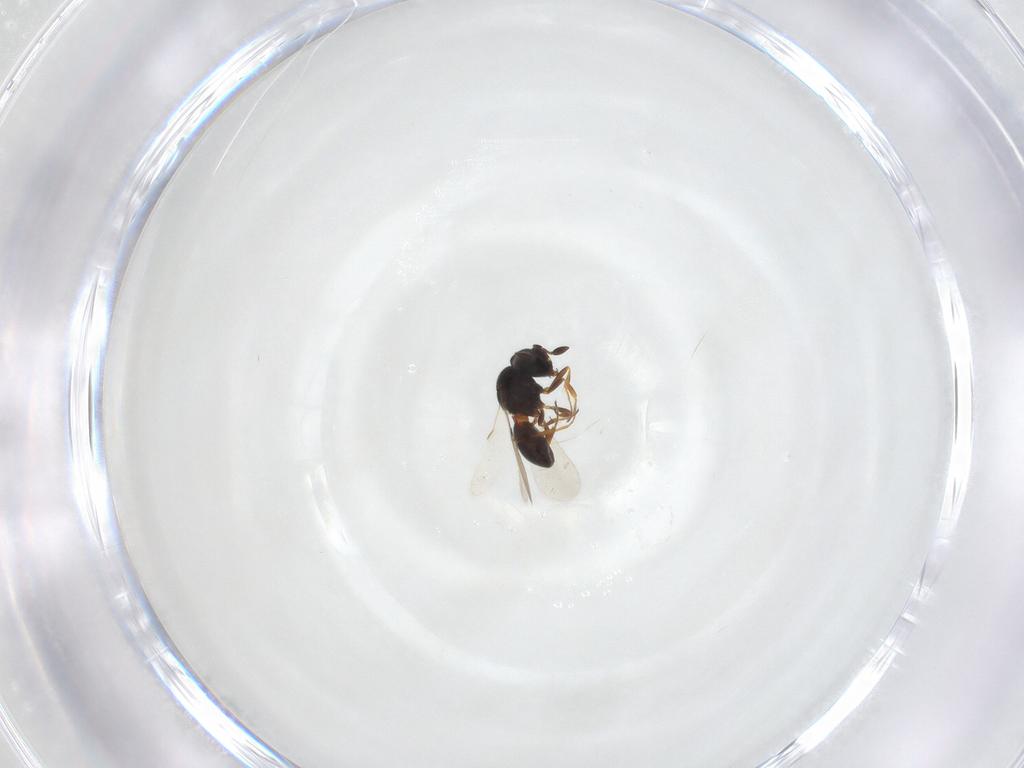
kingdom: Animalia
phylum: Arthropoda
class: Insecta
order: Hymenoptera
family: Scelionidae
